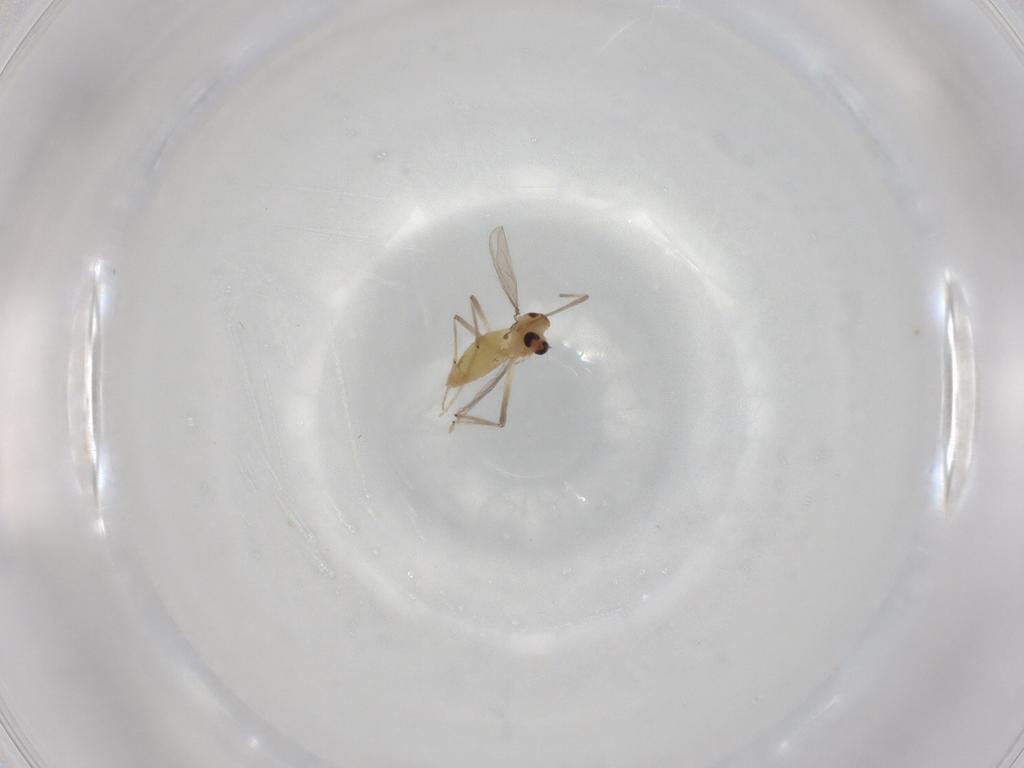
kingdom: Animalia
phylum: Arthropoda
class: Insecta
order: Diptera
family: Chironomidae
